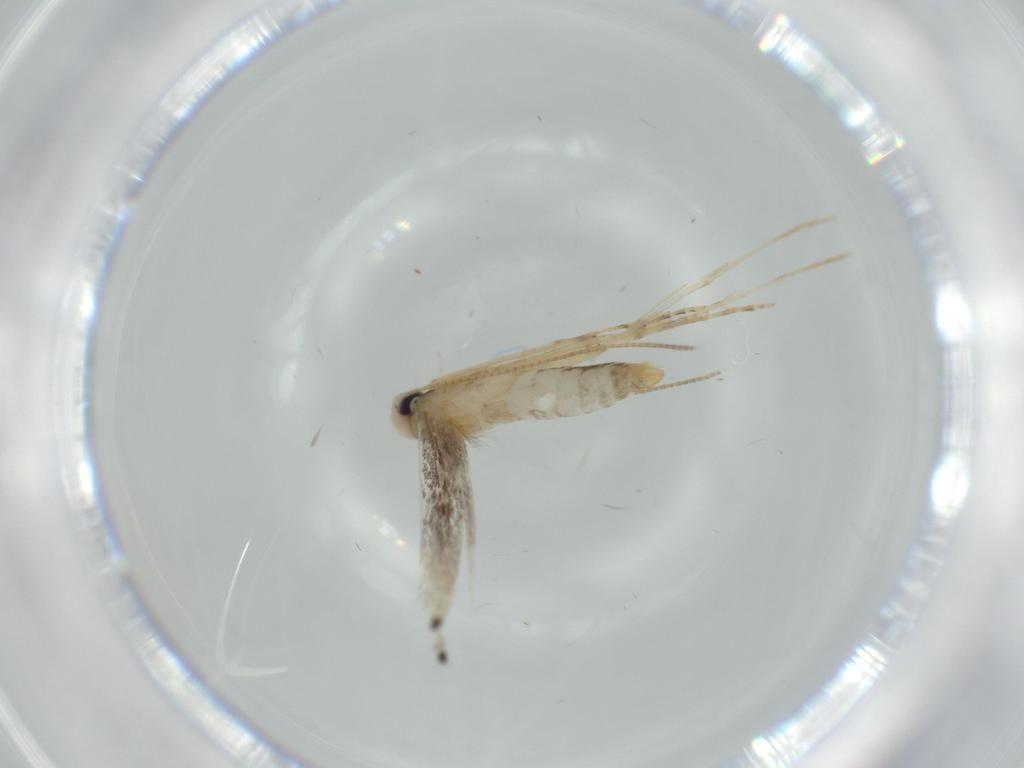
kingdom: Animalia
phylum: Arthropoda
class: Insecta
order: Lepidoptera
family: Gracillariidae
